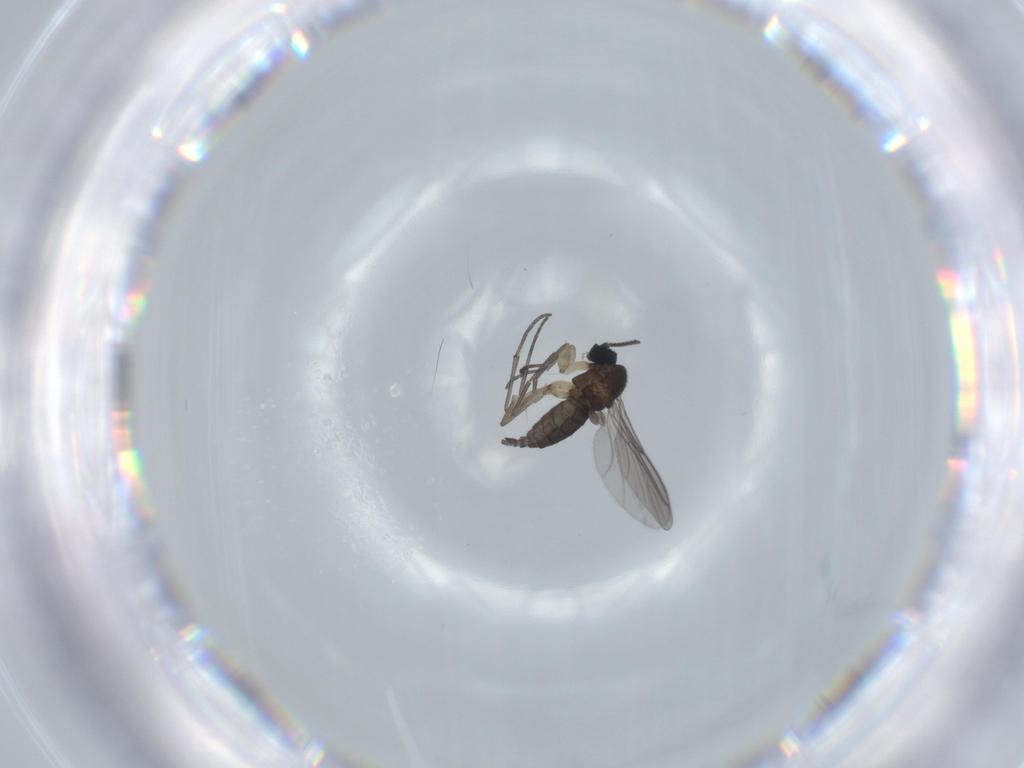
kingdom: Animalia
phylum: Arthropoda
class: Insecta
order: Diptera
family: Sciaridae
